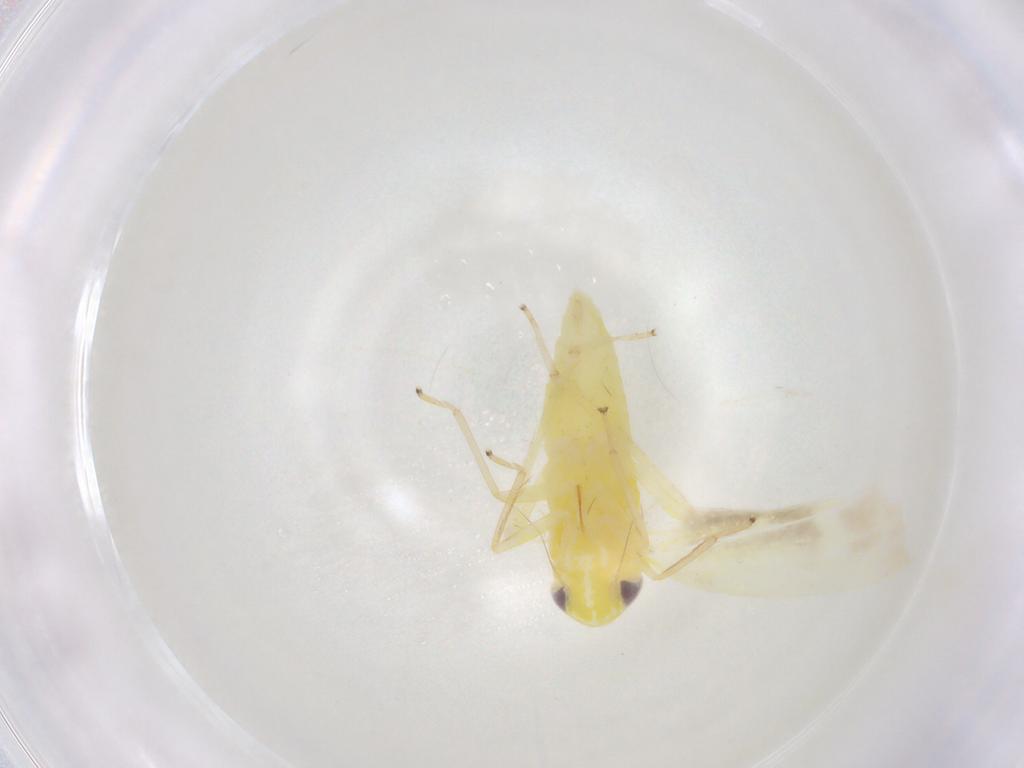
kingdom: Animalia
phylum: Arthropoda
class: Insecta
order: Hemiptera
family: Cicadellidae
